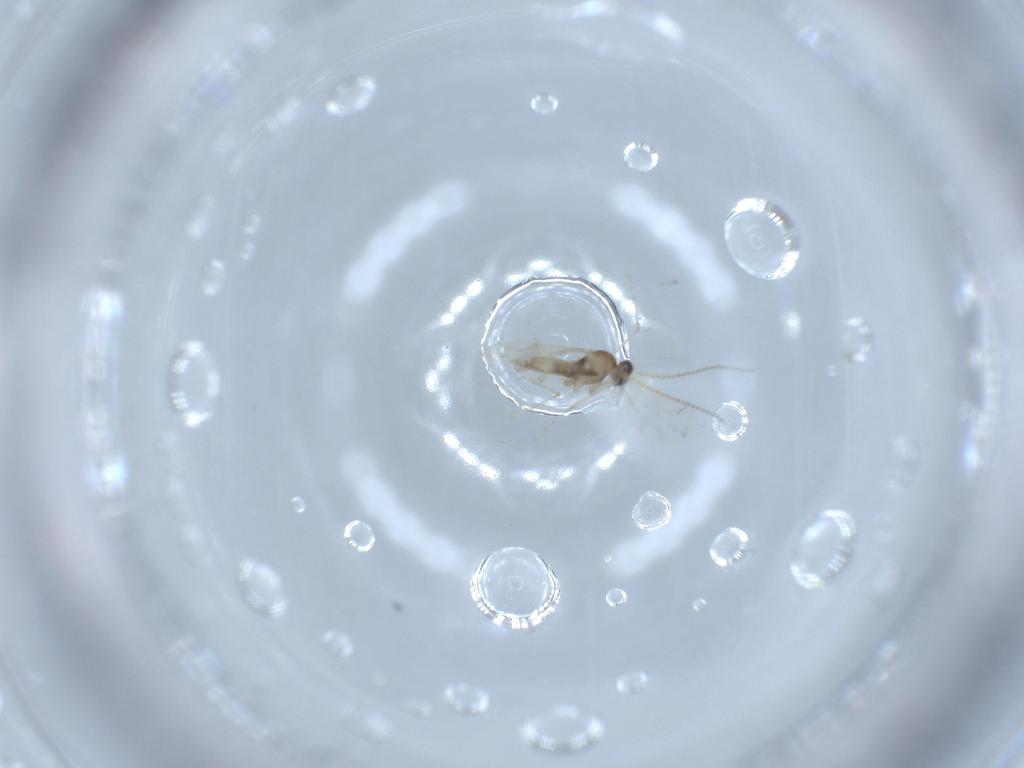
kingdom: Animalia
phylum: Arthropoda
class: Insecta
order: Diptera
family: Cecidomyiidae
